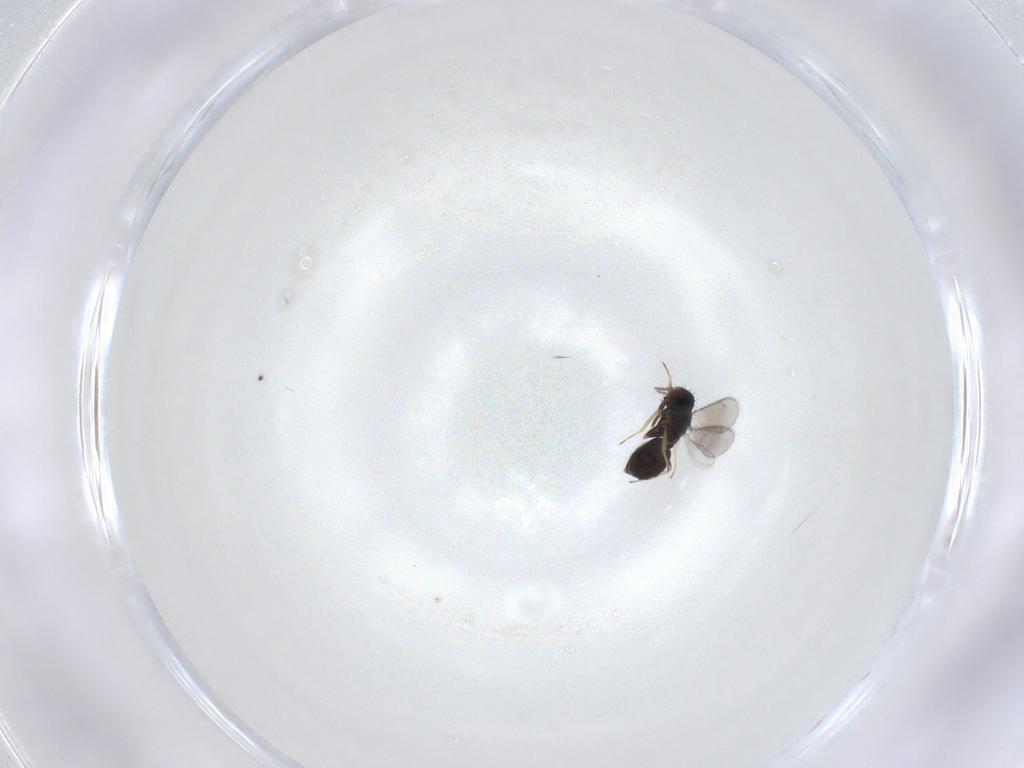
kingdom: Animalia
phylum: Arthropoda
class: Insecta
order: Hymenoptera
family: Eulophidae
